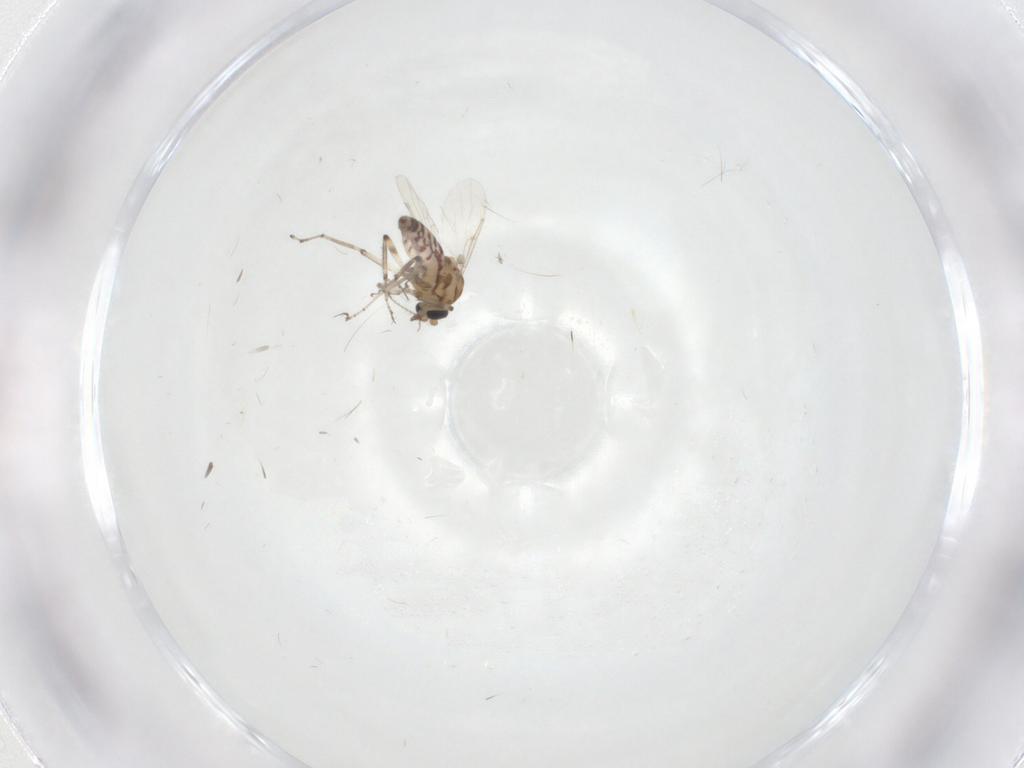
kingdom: Animalia
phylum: Arthropoda
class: Insecta
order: Diptera
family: Ceratopogonidae
